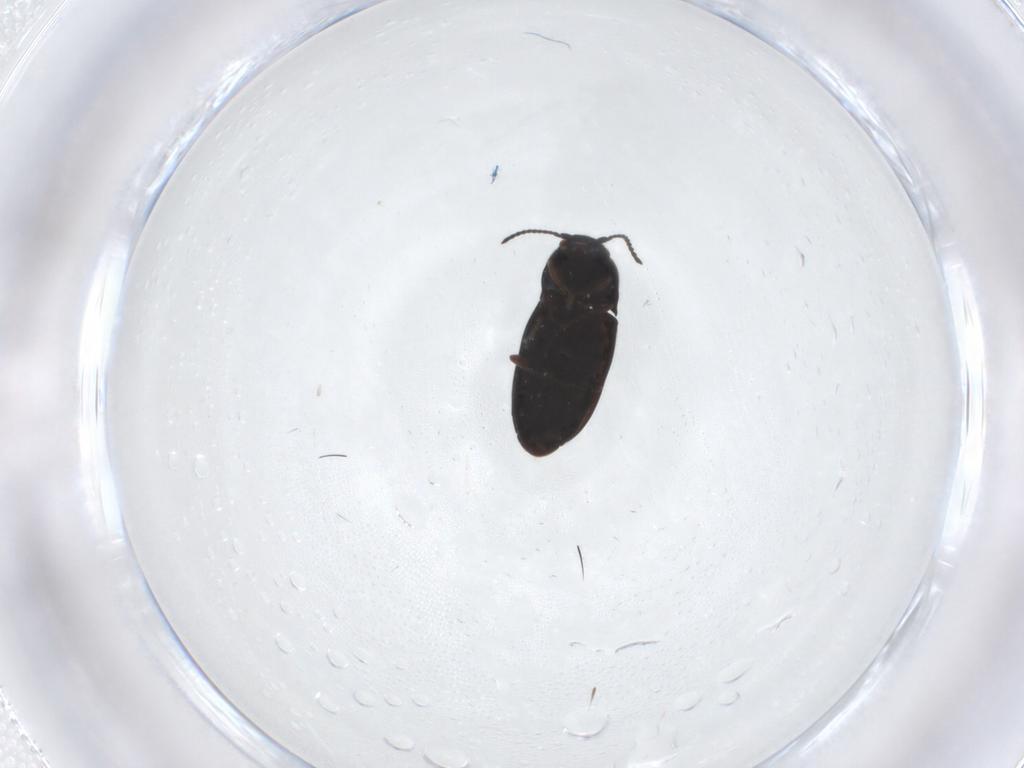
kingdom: Animalia
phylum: Arthropoda
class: Insecta
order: Coleoptera
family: Elateridae
